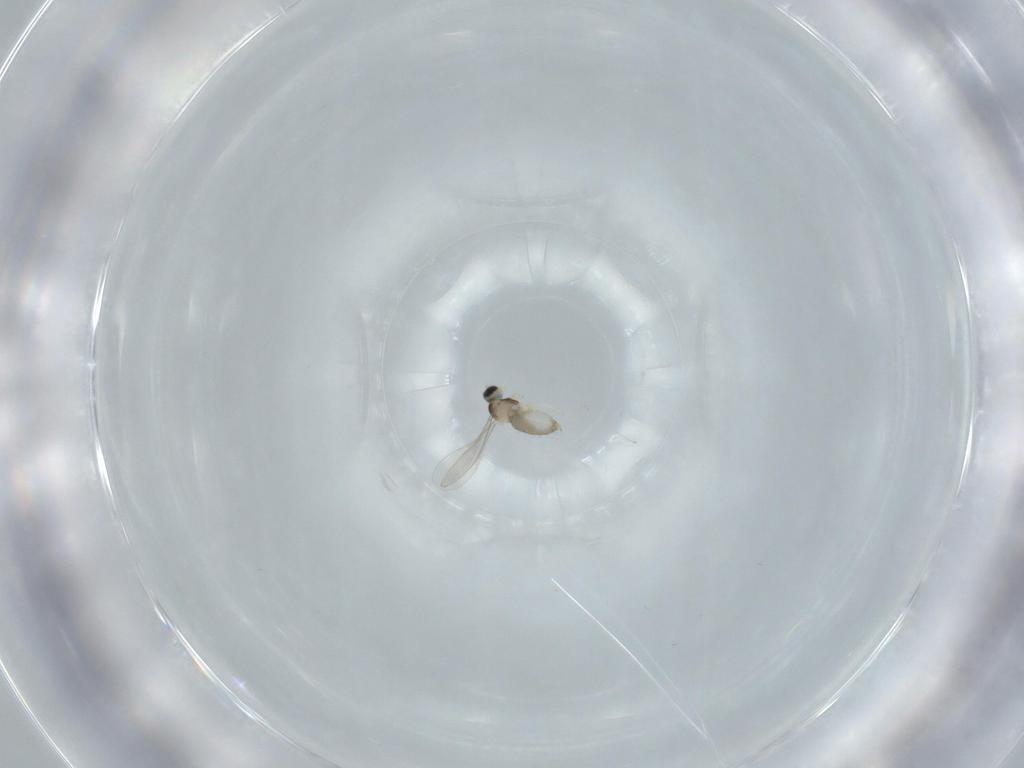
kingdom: Animalia
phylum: Arthropoda
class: Insecta
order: Diptera
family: Cecidomyiidae
